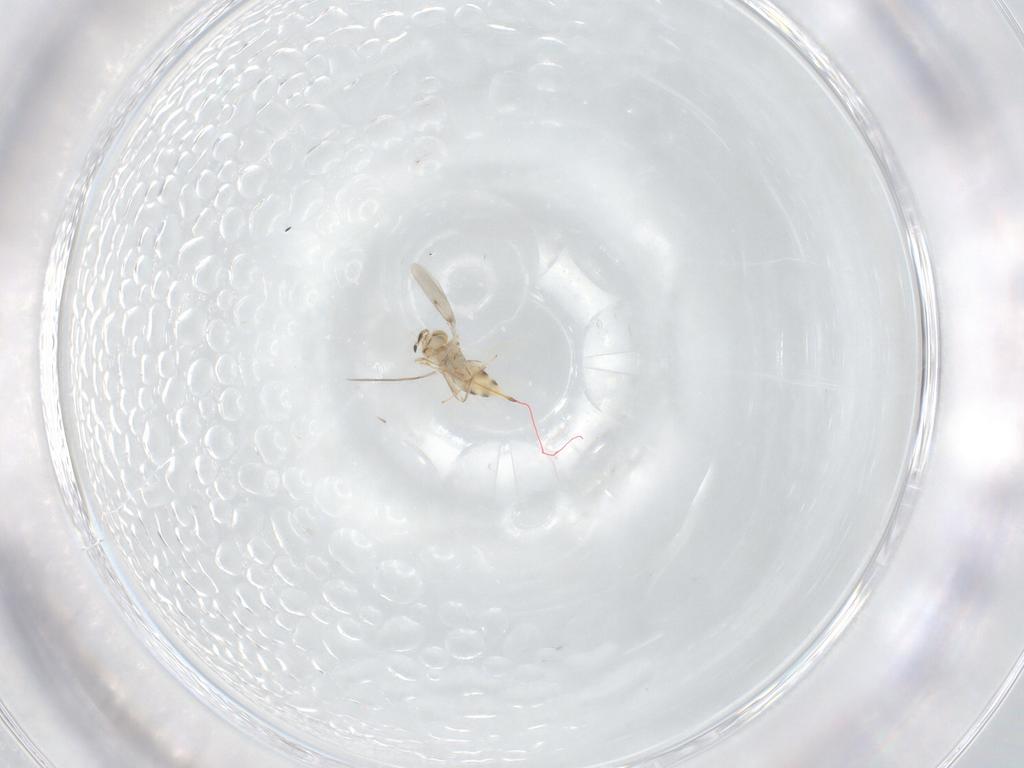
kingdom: Animalia
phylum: Arthropoda
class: Insecta
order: Hymenoptera
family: Aphelinidae
